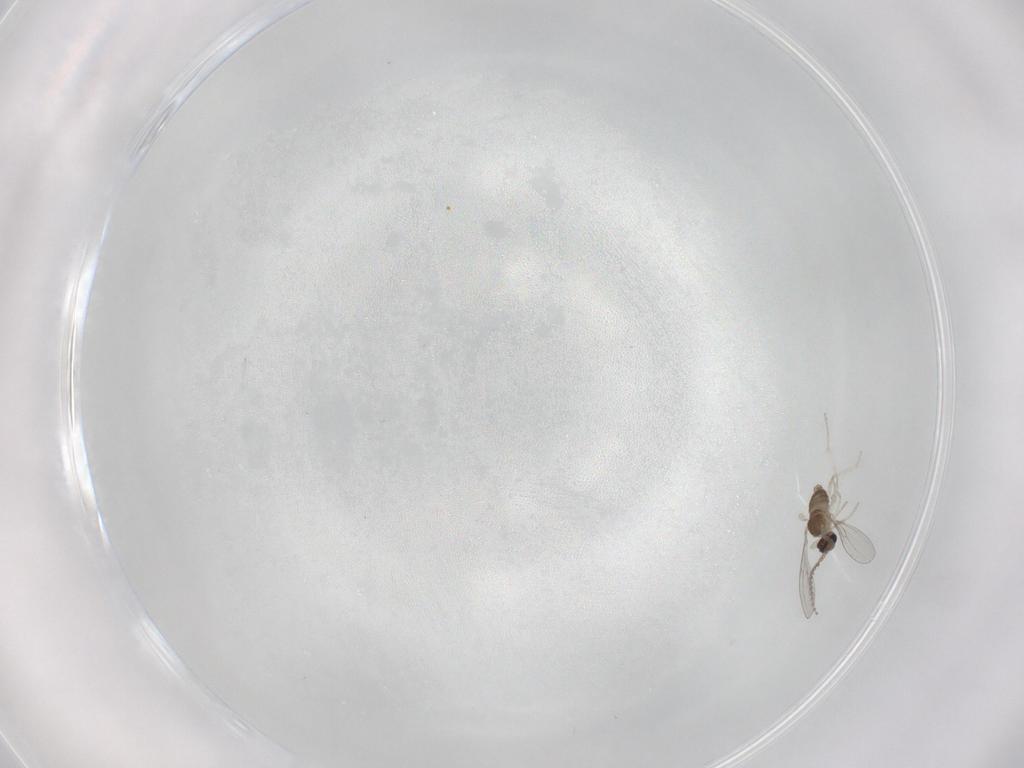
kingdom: Animalia
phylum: Arthropoda
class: Insecta
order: Diptera
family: Cecidomyiidae
